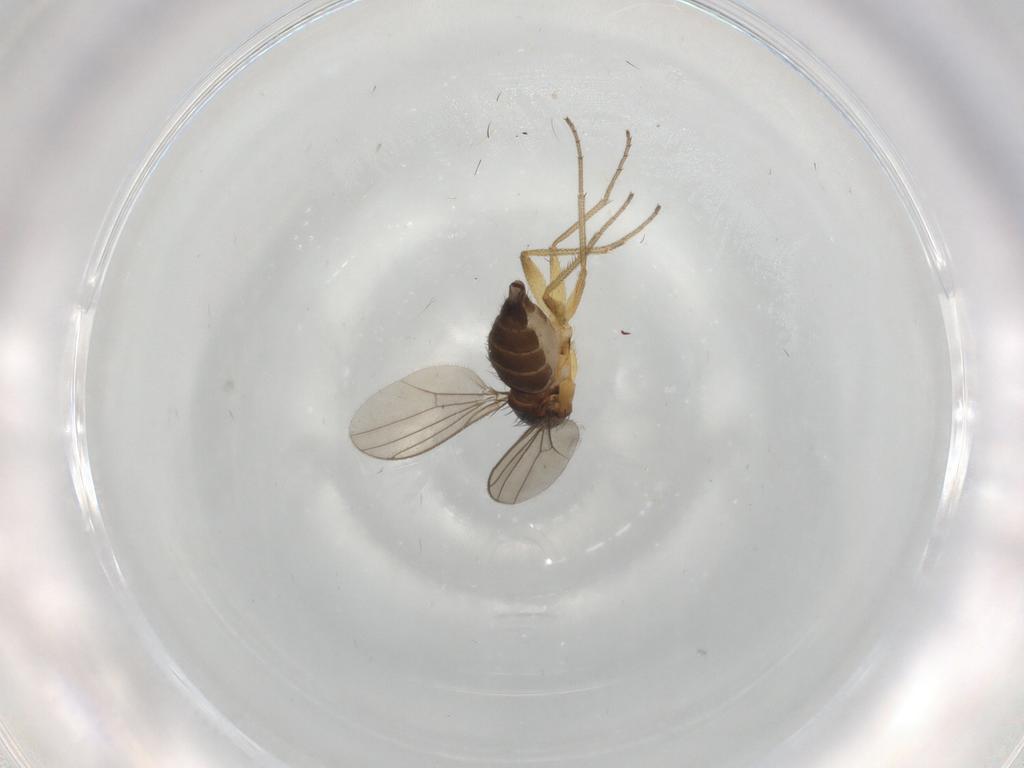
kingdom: Animalia
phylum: Arthropoda
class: Insecta
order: Diptera
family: Dolichopodidae
